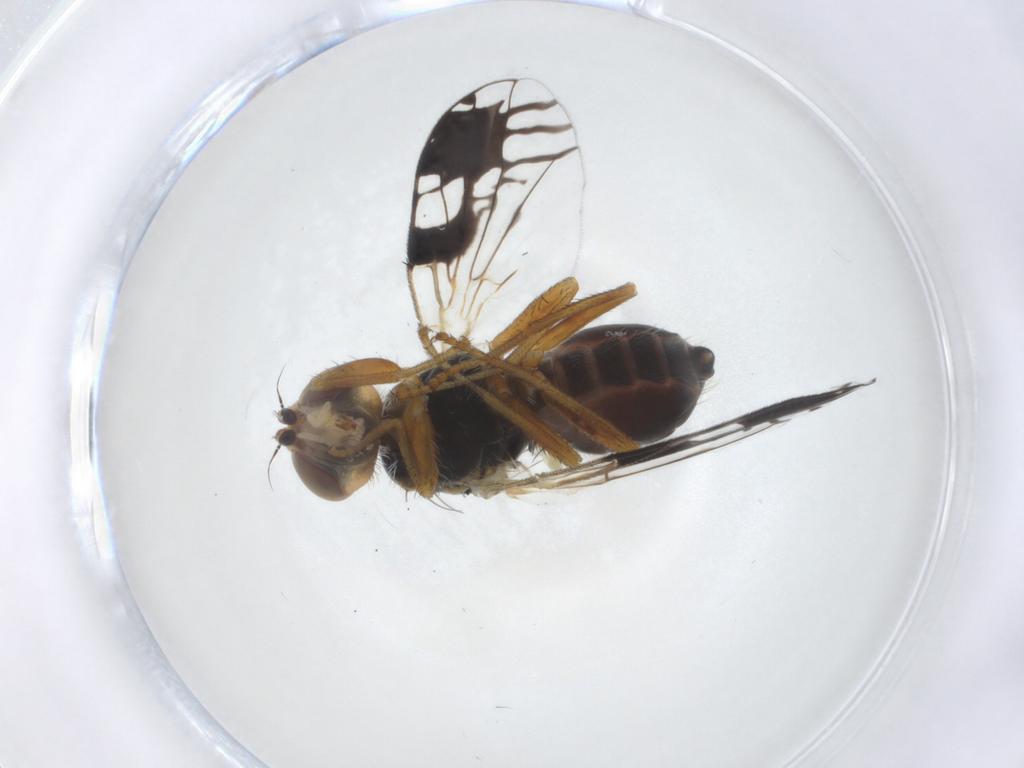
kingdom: Animalia
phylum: Arthropoda
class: Insecta
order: Diptera
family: Tephritidae
